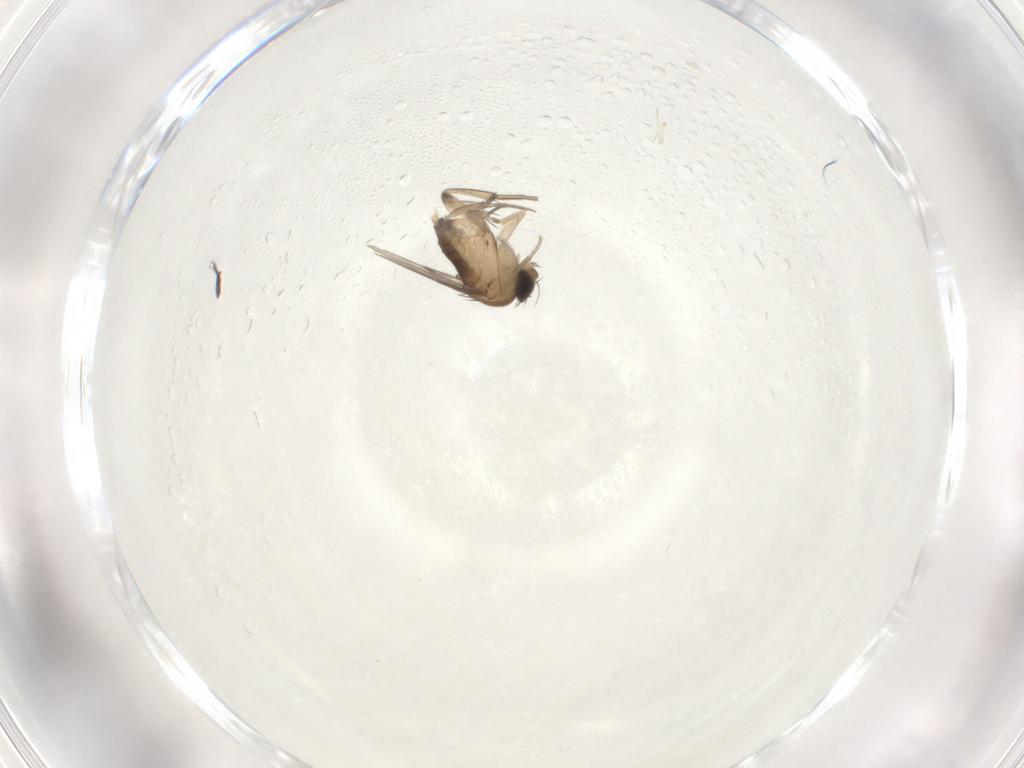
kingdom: Animalia
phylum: Arthropoda
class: Insecta
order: Diptera
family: Phoridae
